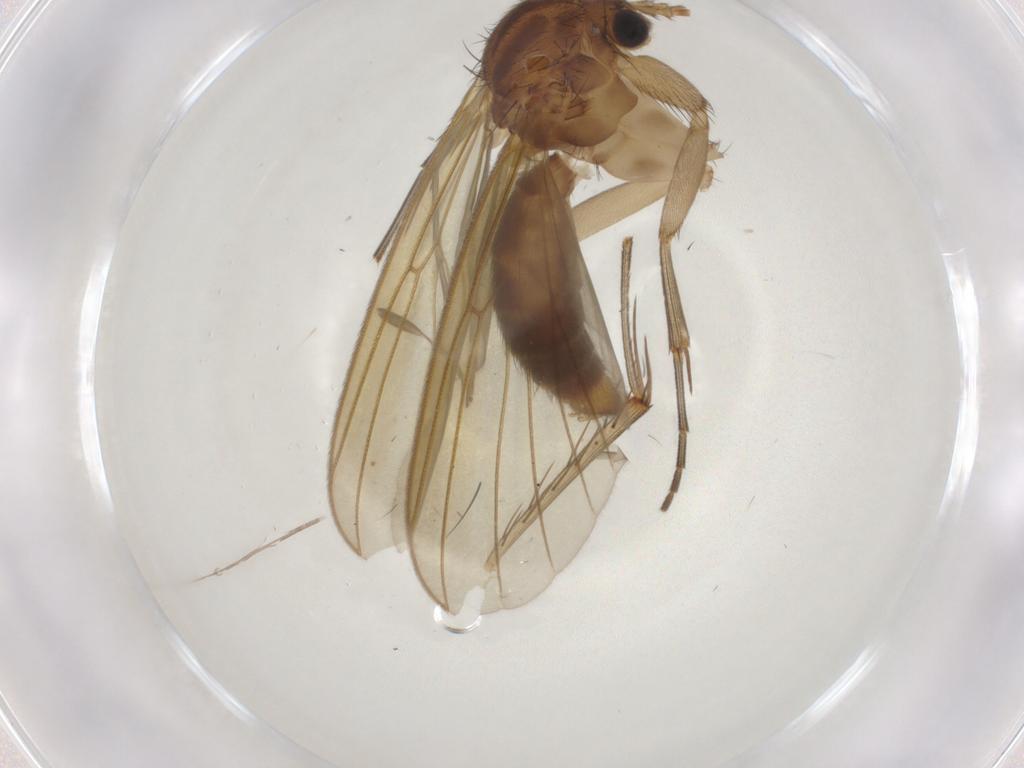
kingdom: Animalia
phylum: Arthropoda
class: Insecta
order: Diptera
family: Mycetophilidae
